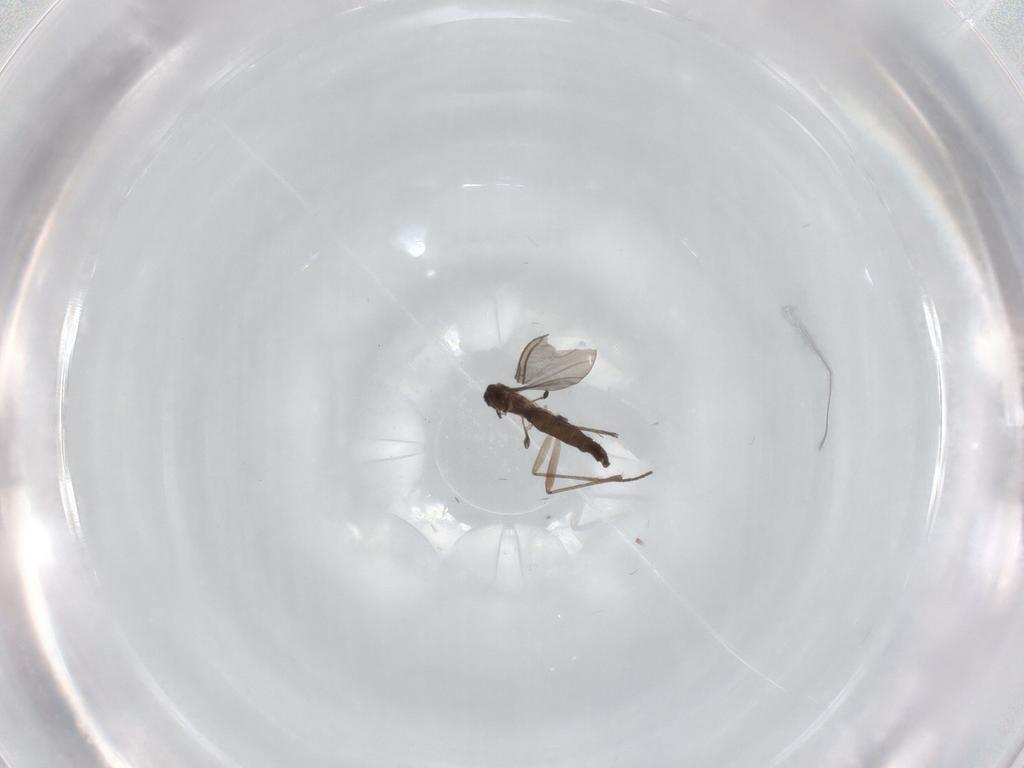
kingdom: Animalia
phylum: Arthropoda
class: Insecta
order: Diptera
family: Sciaridae
